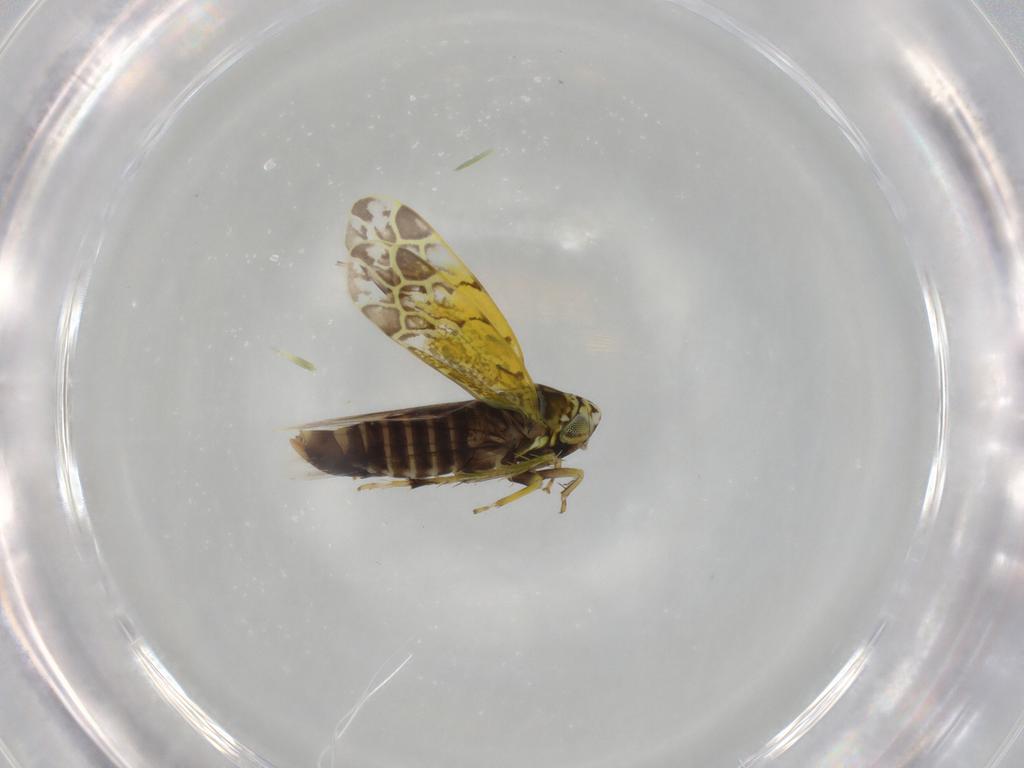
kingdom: Animalia
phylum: Arthropoda
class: Insecta
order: Hemiptera
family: Cicadellidae
